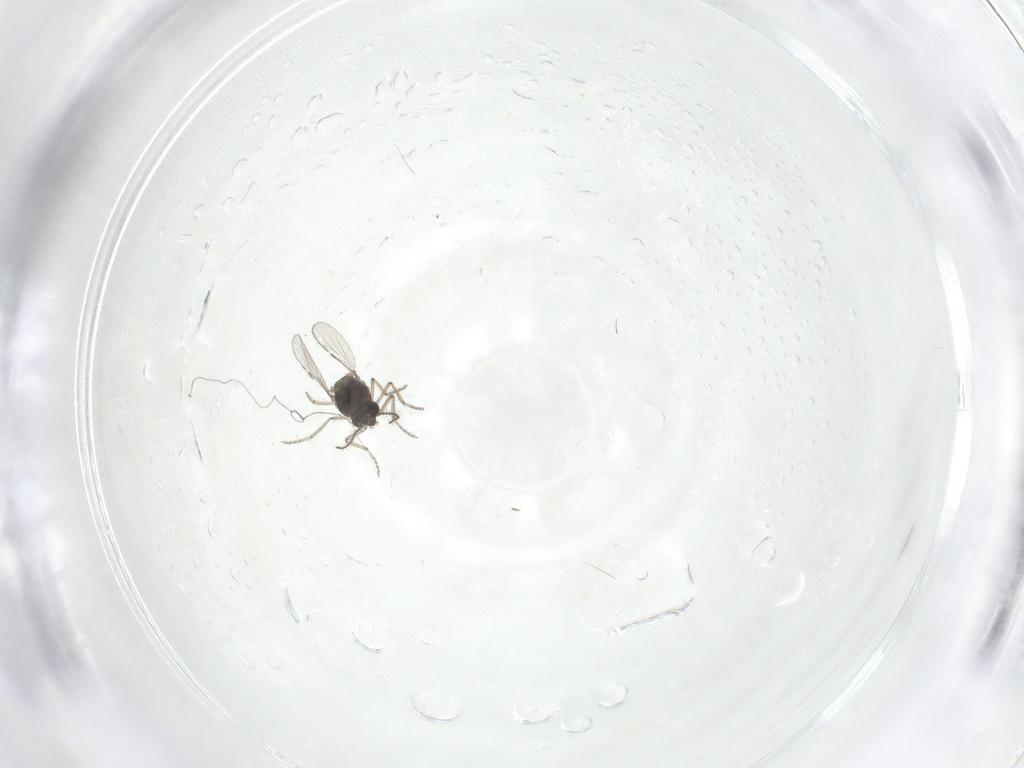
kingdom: Animalia
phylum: Arthropoda
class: Insecta
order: Diptera
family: Ceratopogonidae
